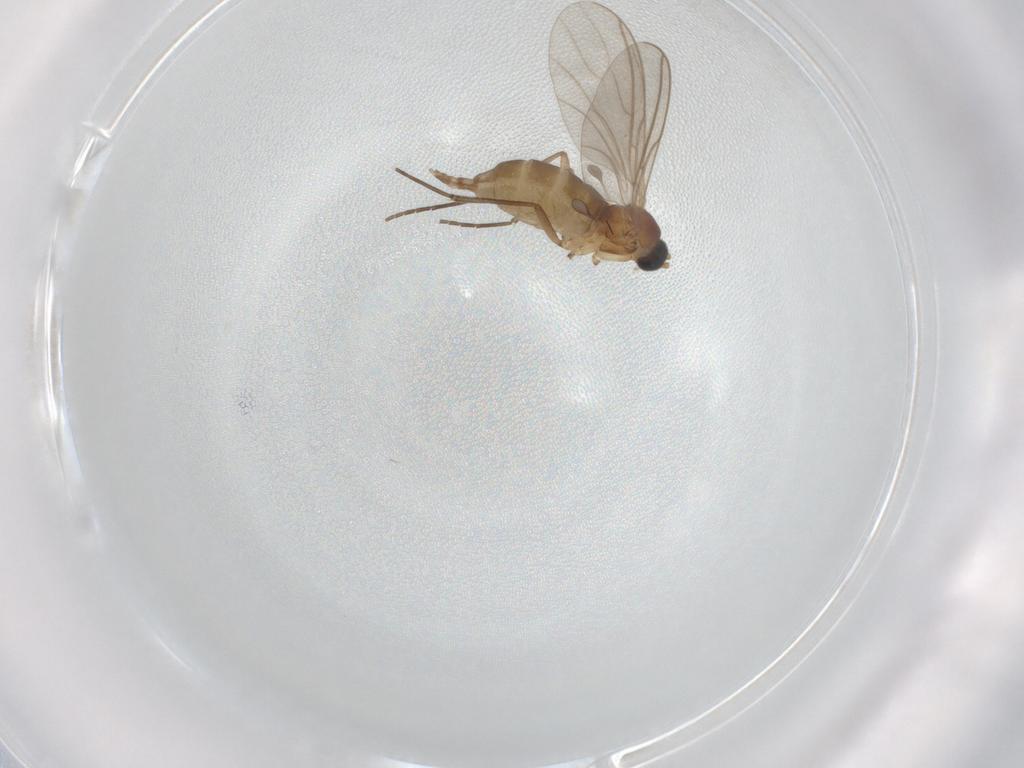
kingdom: Animalia
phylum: Arthropoda
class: Insecta
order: Diptera
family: Sciaridae
